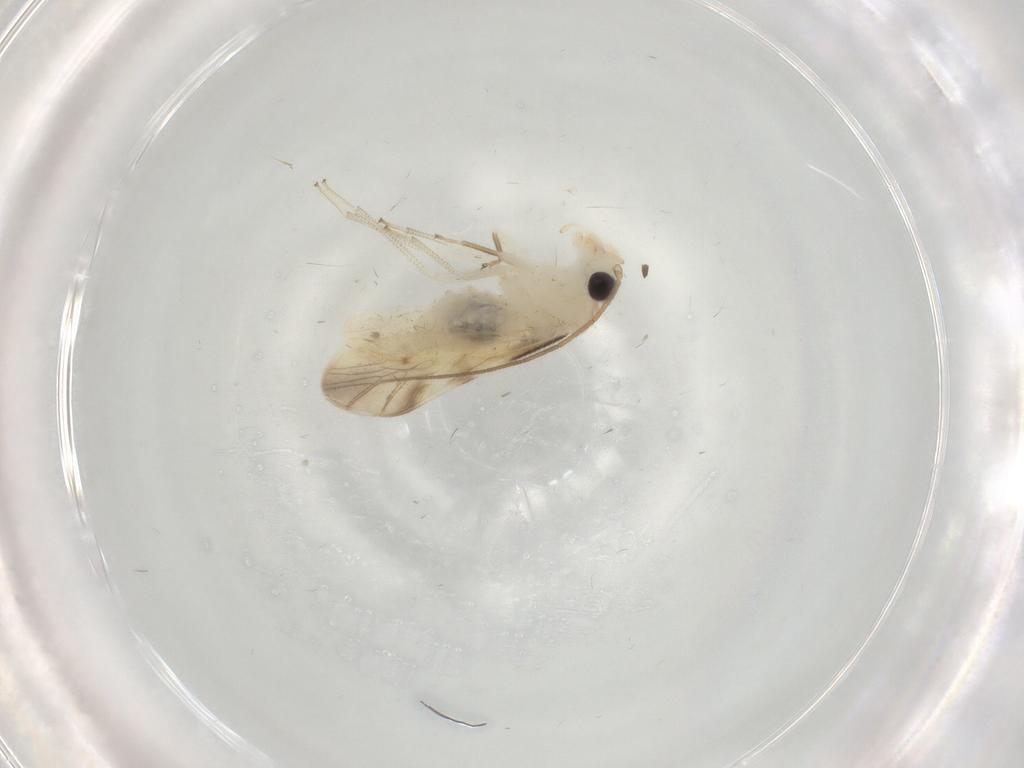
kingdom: Animalia
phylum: Arthropoda
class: Insecta
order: Psocodea
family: Caeciliusidae
